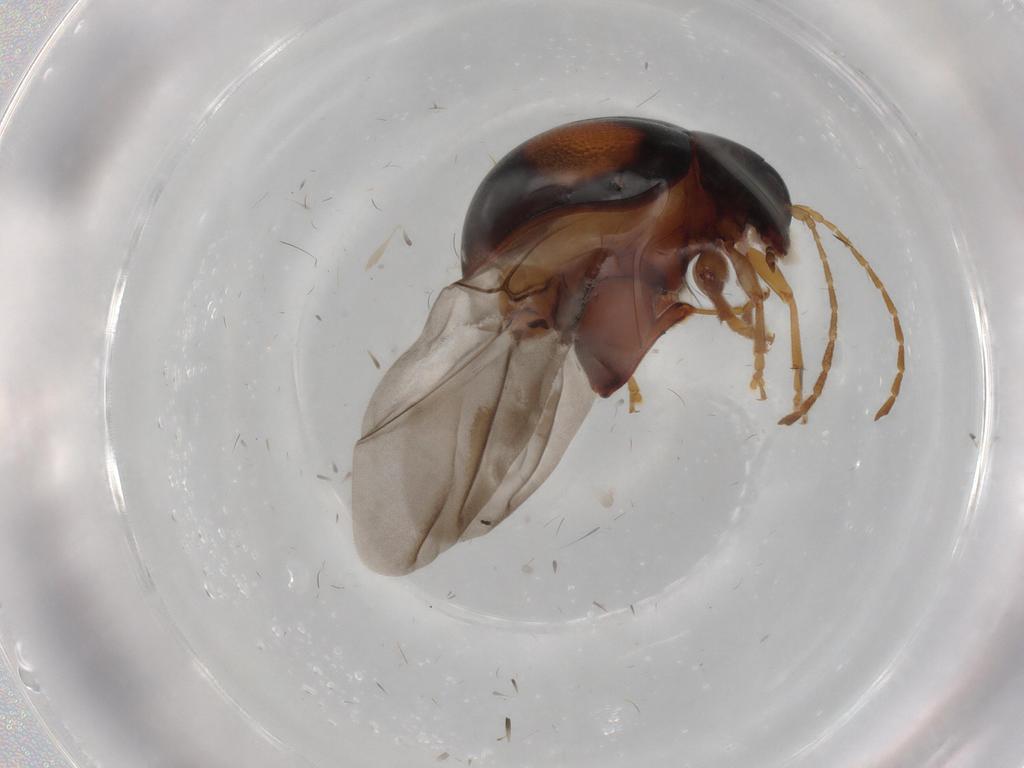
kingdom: Animalia
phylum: Arthropoda
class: Insecta
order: Coleoptera
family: Chrysomelidae
